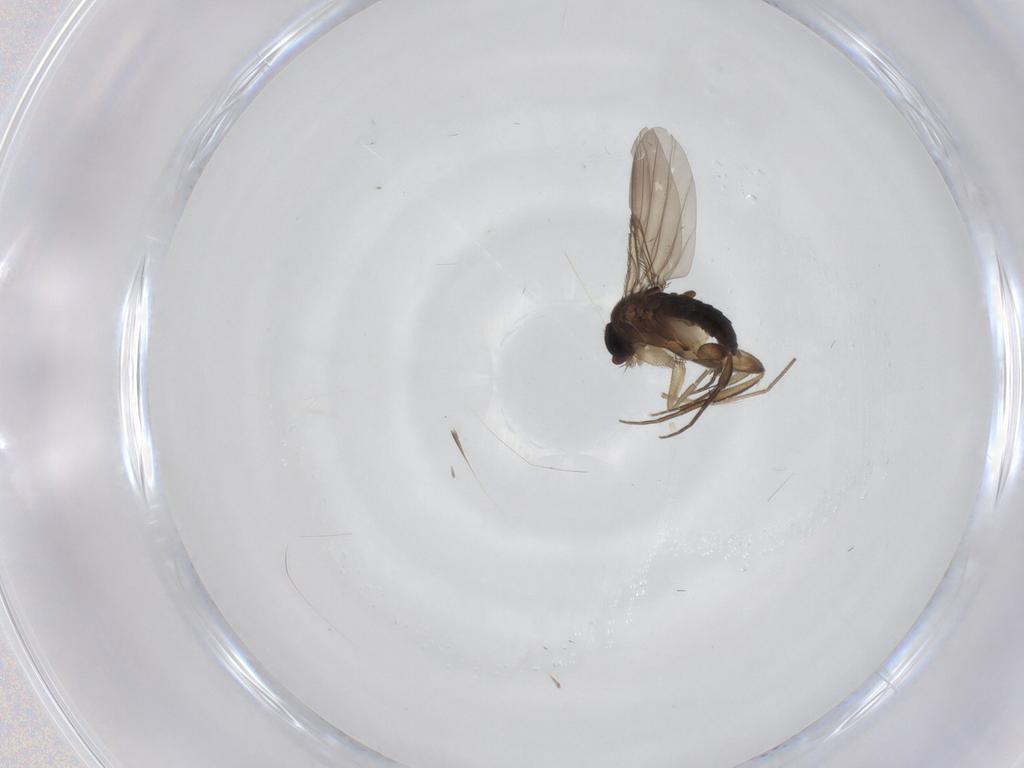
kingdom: Animalia
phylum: Arthropoda
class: Insecta
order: Diptera
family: Phoridae
